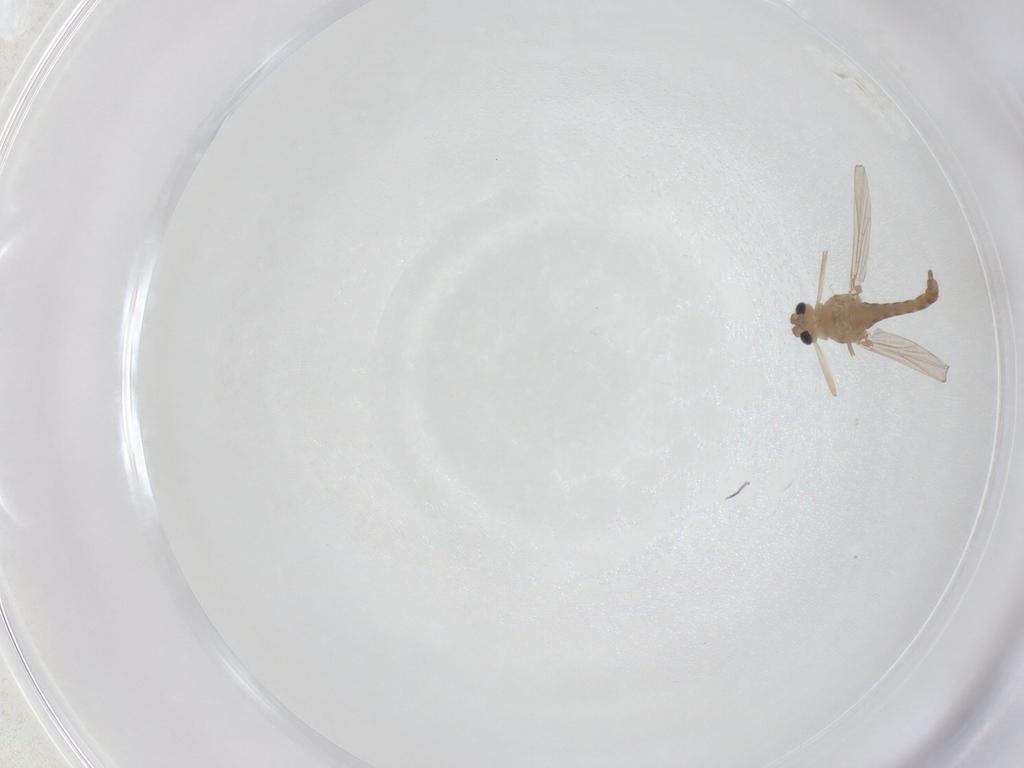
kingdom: Animalia
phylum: Arthropoda
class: Insecta
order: Diptera
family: Chironomidae
